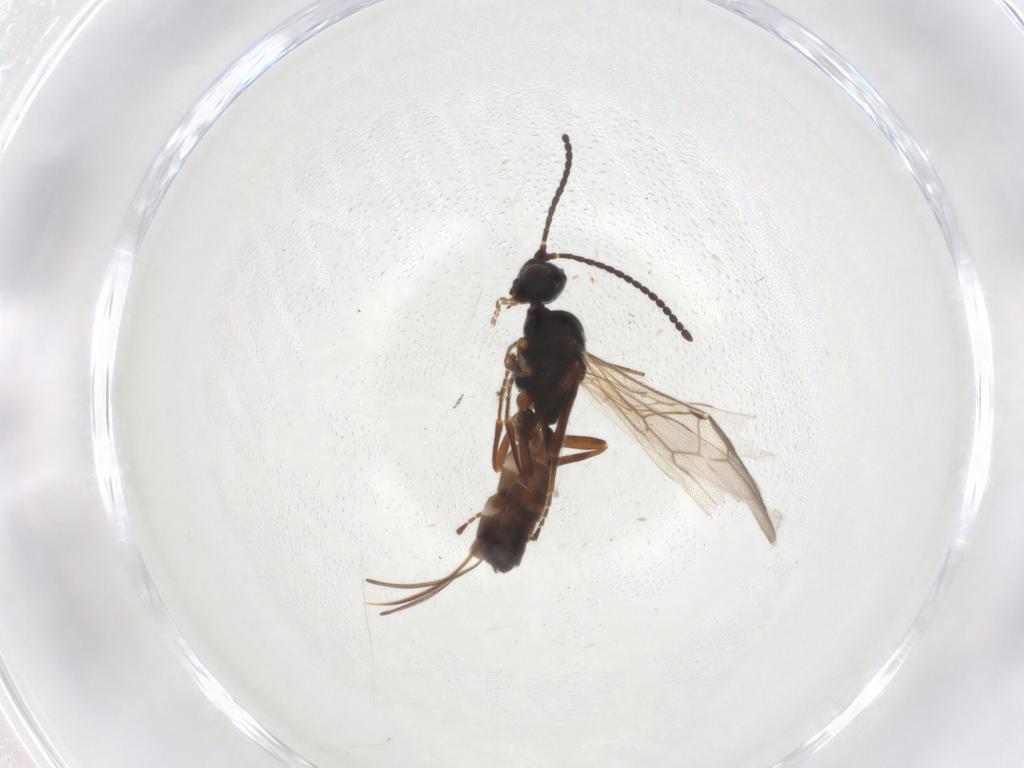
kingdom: Animalia
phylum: Arthropoda
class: Insecta
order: Hymenoptera
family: Braconidae
